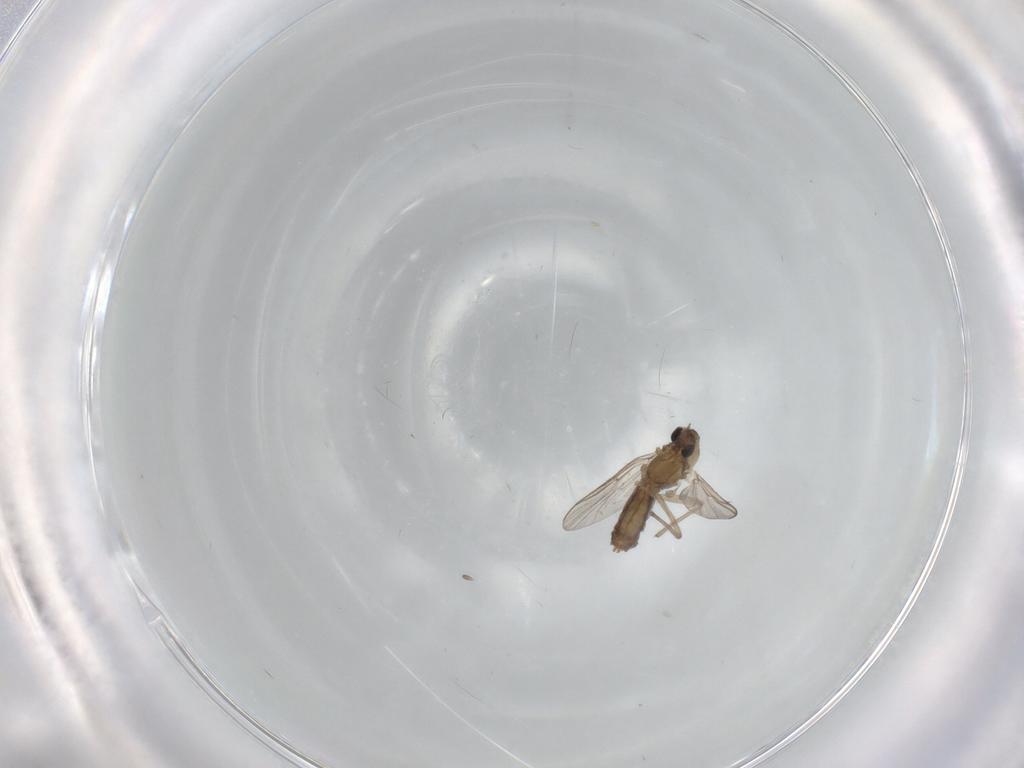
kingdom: Animalia
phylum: Arthropoda
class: Insecta
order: Diptera
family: Chironomidae
